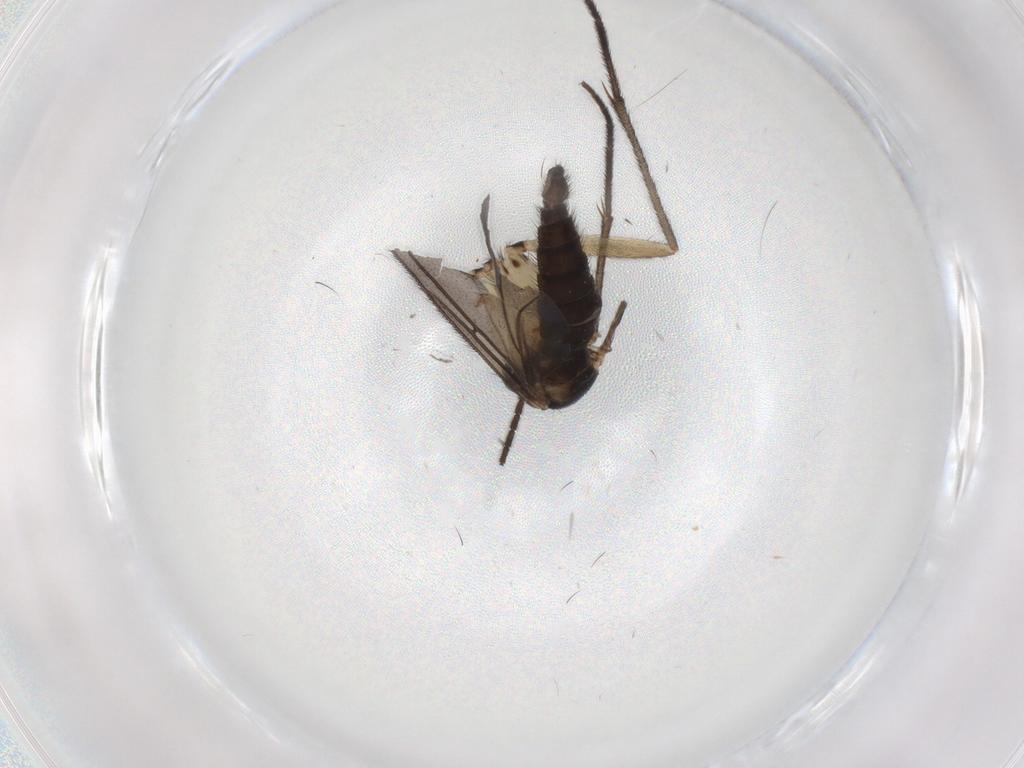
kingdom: Animalia
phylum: Arthropoda
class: Insecta
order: Diptera
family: Sciaridae
